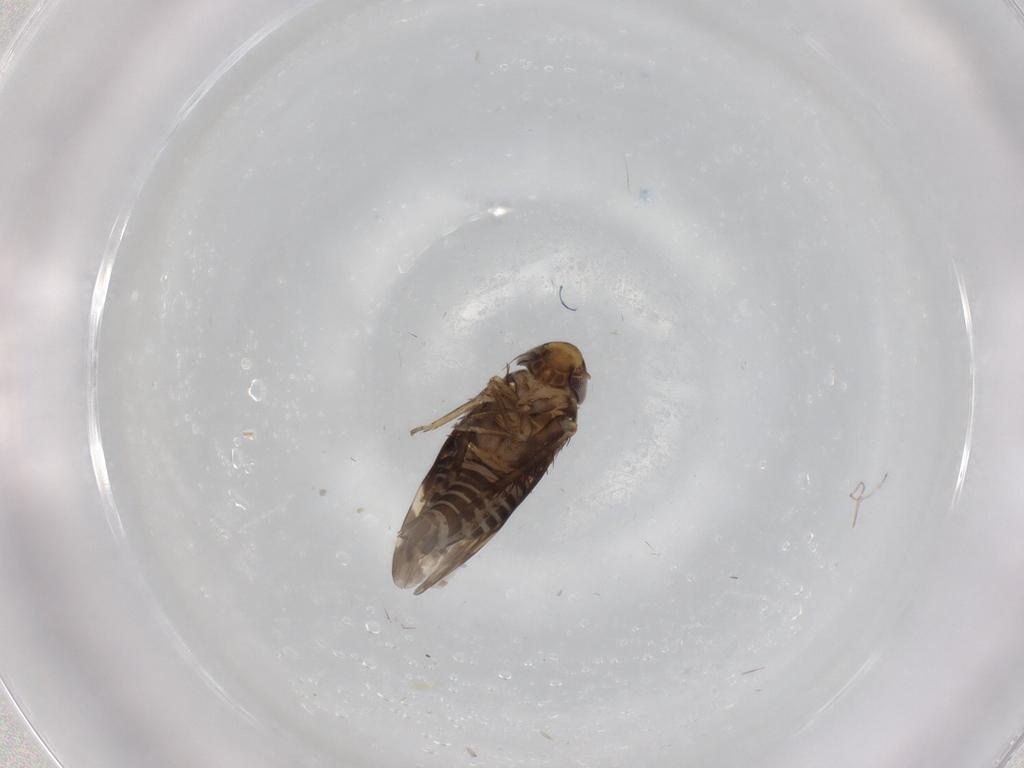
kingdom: Animalia
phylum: Arthropoda
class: Insecta
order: Hemiptera
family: Cicadellidae
